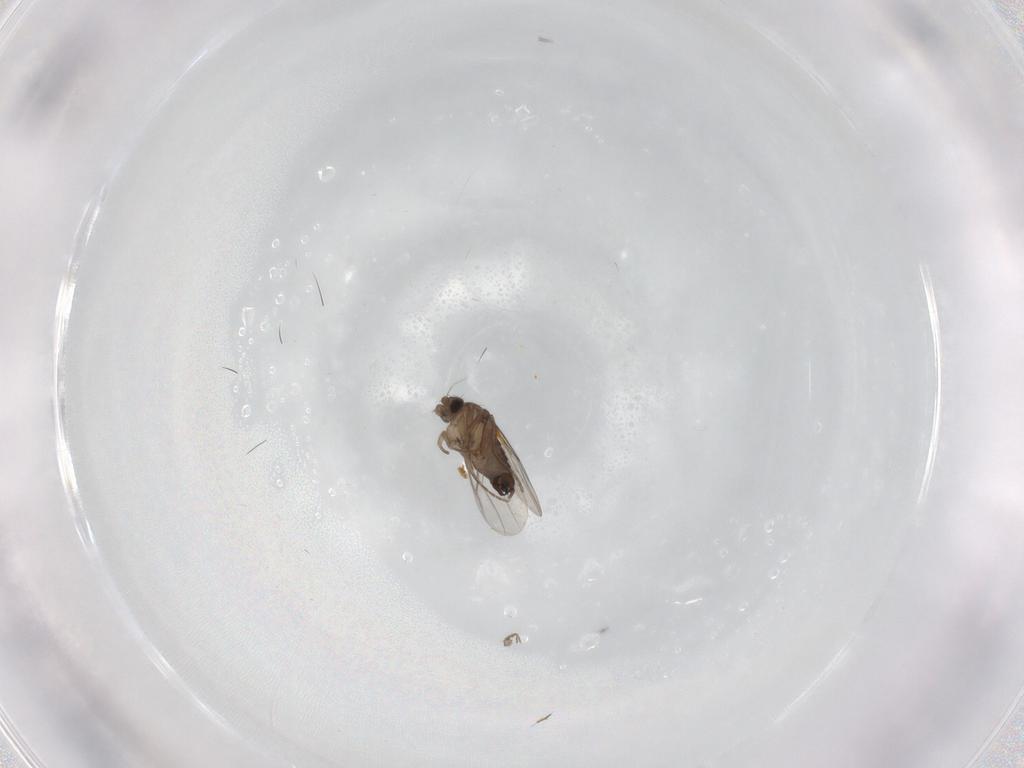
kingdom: Animalia
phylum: Arthropoda
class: Insecta
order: Diptera
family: Phoridae
